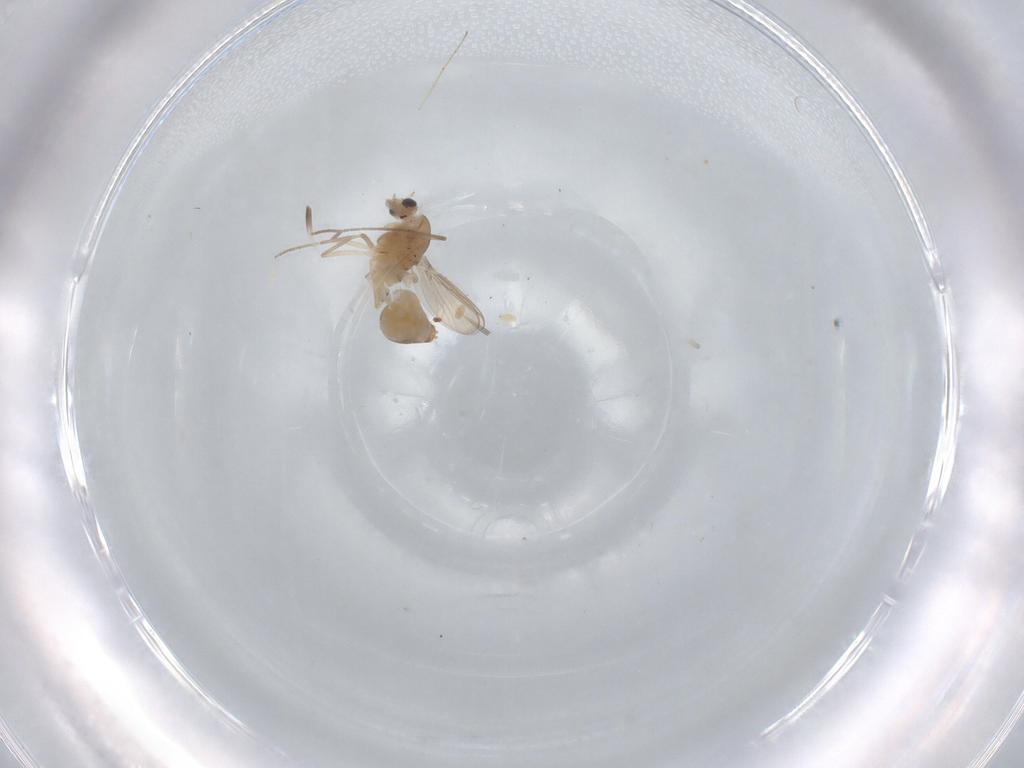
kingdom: Animalia
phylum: Arthropoda
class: Insecta
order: Diptera
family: Chironomidae
